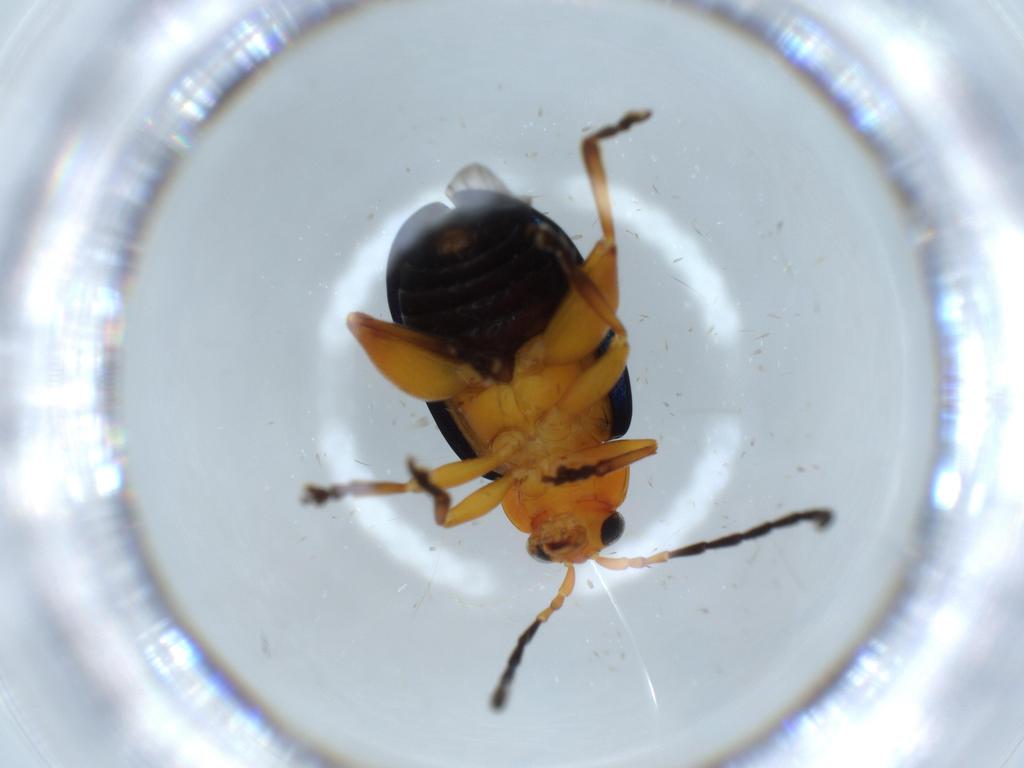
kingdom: Animalia
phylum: Arthropoda
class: Insecta
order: Coleoptera
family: Chrysomelidae
